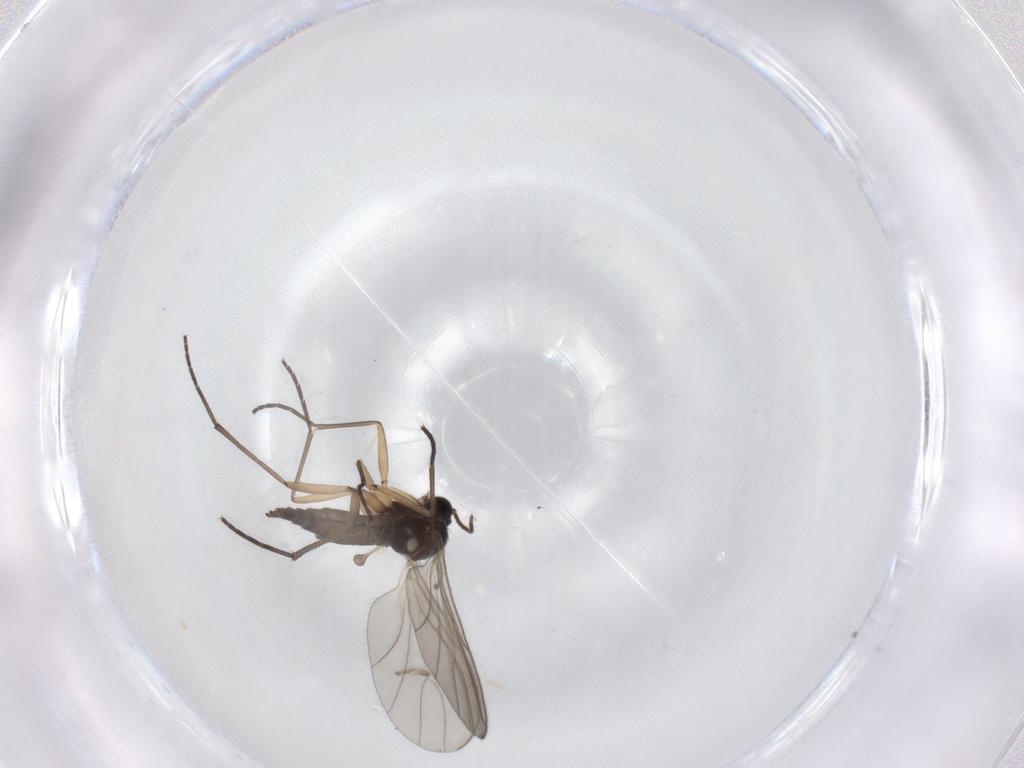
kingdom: Animalia
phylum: Arthropoda
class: Insecta
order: Diptera
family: Sciaridae
